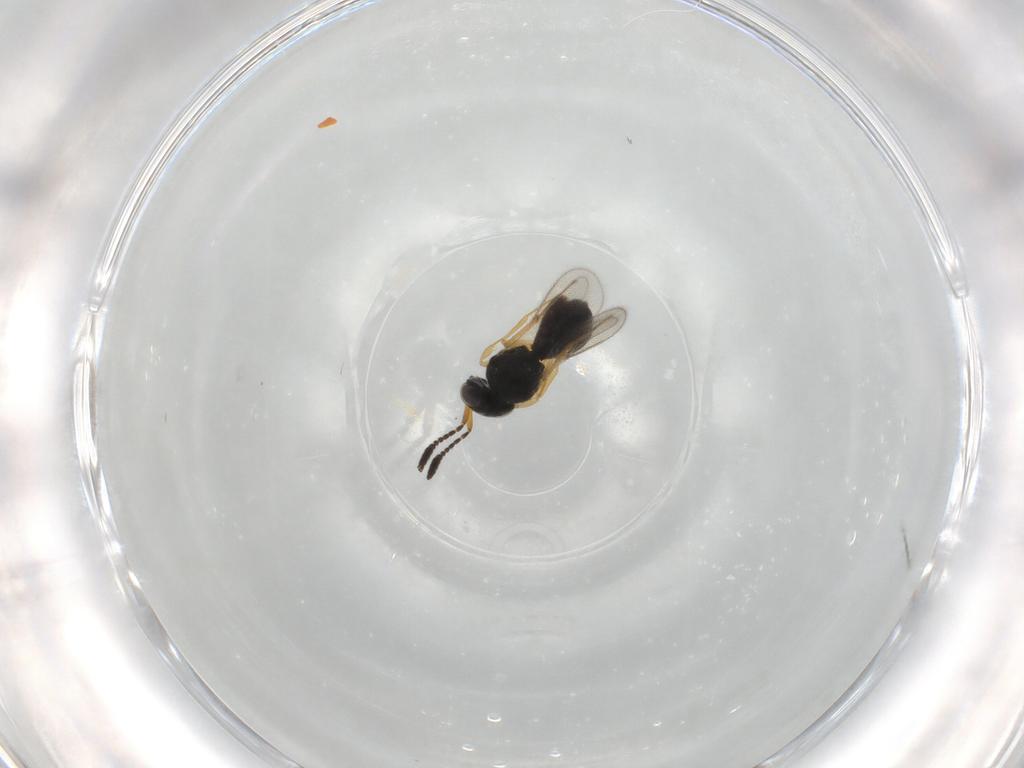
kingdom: Animalia
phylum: Arthropoda
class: Insecta
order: Hymenoptera
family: Scelionidae
